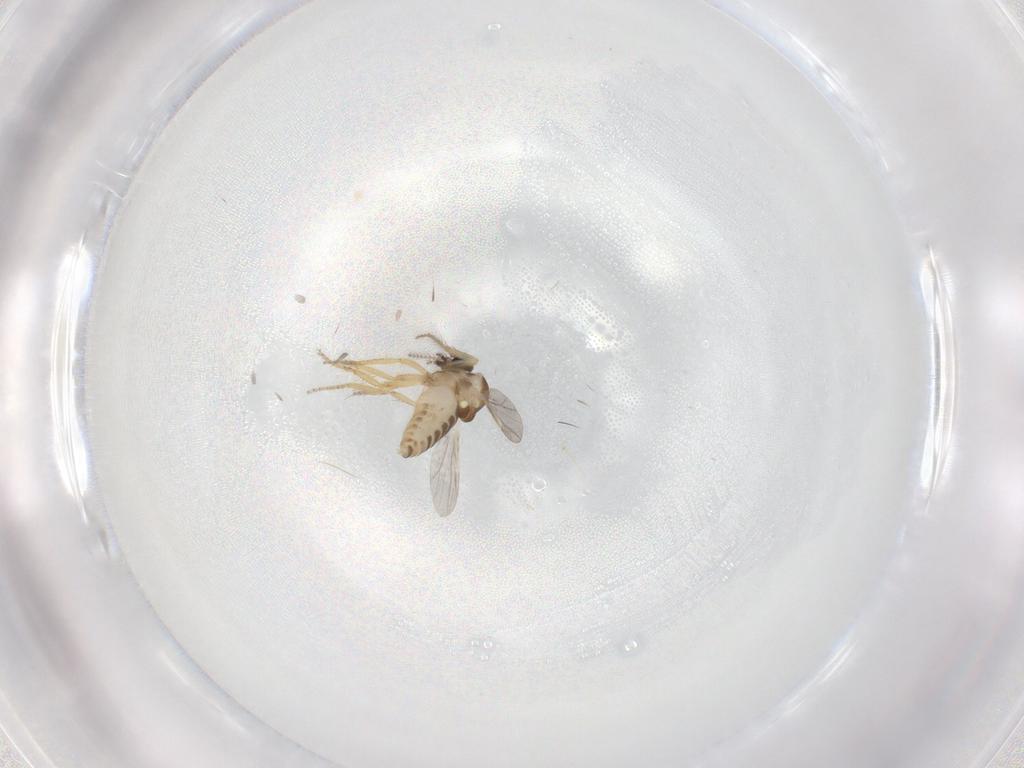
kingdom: Animalia
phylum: Arthropoda
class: Insecta
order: Diptera
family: Ceratopogonidae
